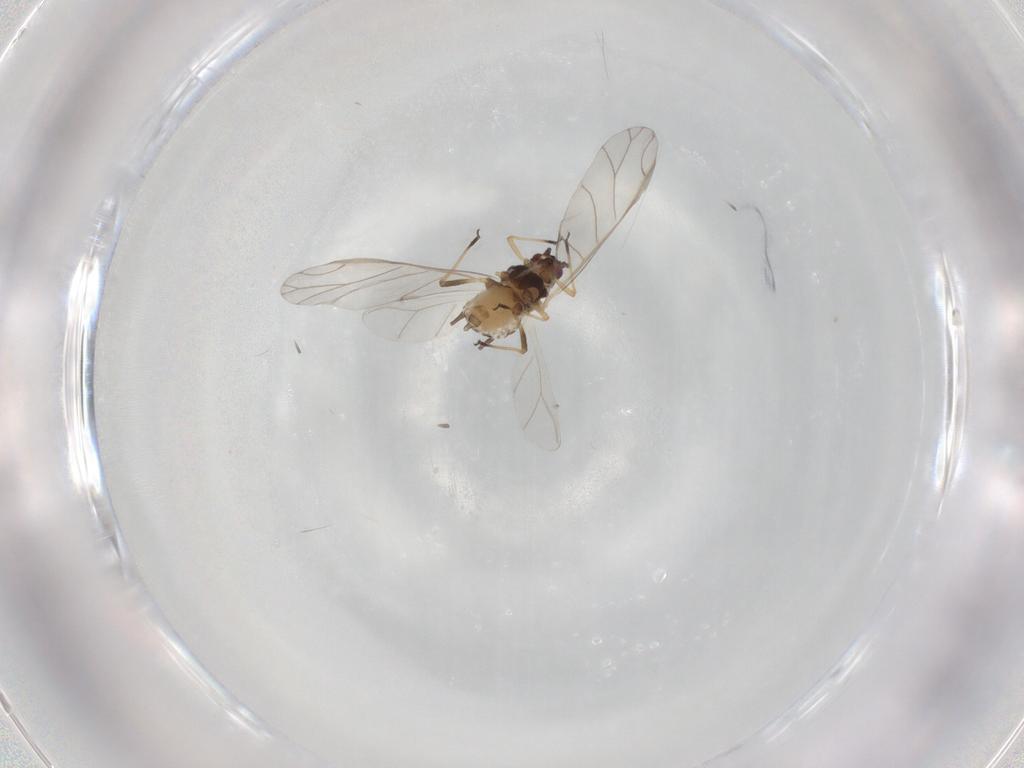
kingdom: Animalia
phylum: Arthropoda
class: Insecta
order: Hemiptera
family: Aphididae
